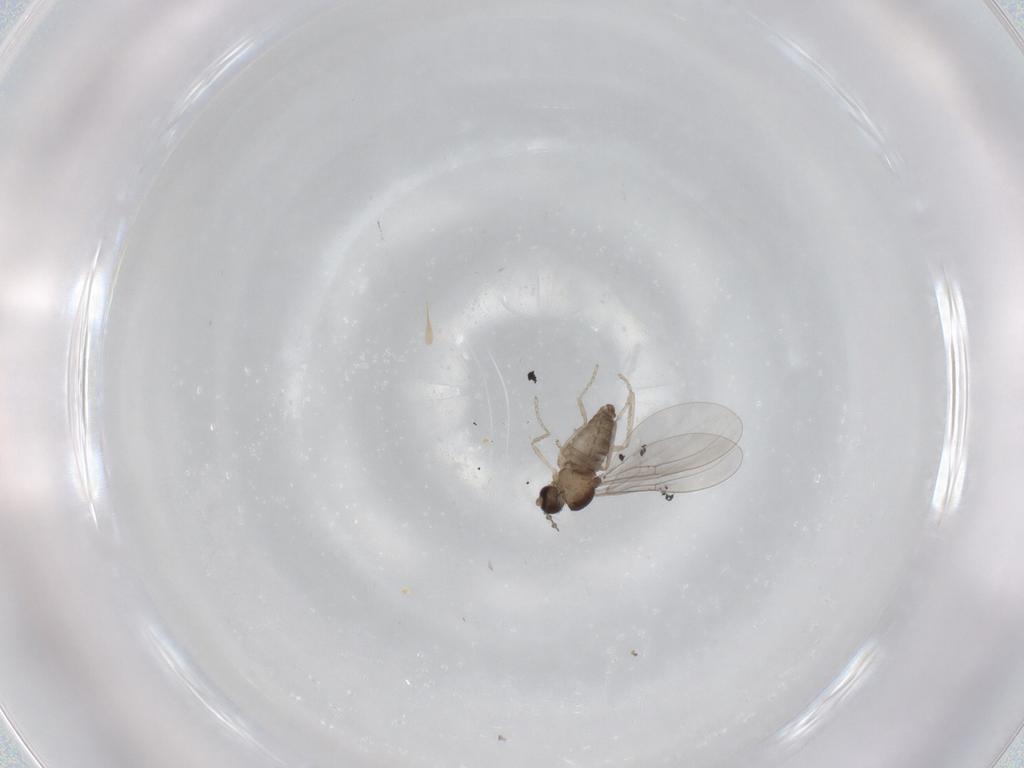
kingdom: Animalia
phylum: Arthropoda
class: Insecta
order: Diptera
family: Cecidomyiidae
